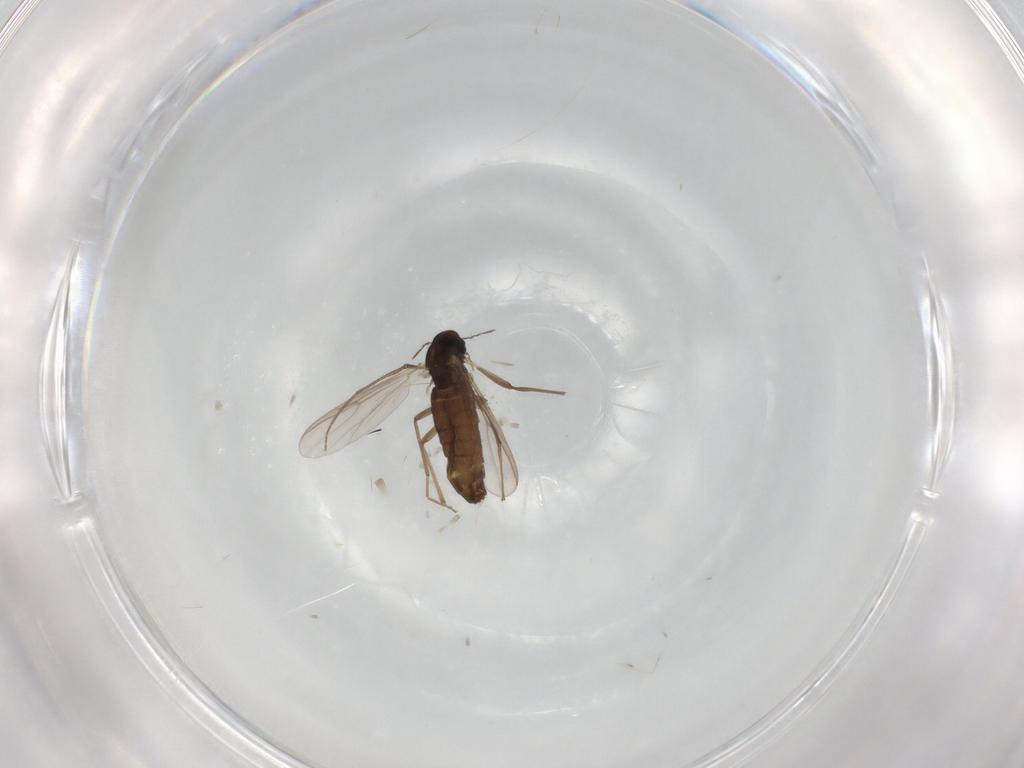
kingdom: Animalia
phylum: Arthropoda
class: Insecta
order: Diptera
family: Chironomidae
